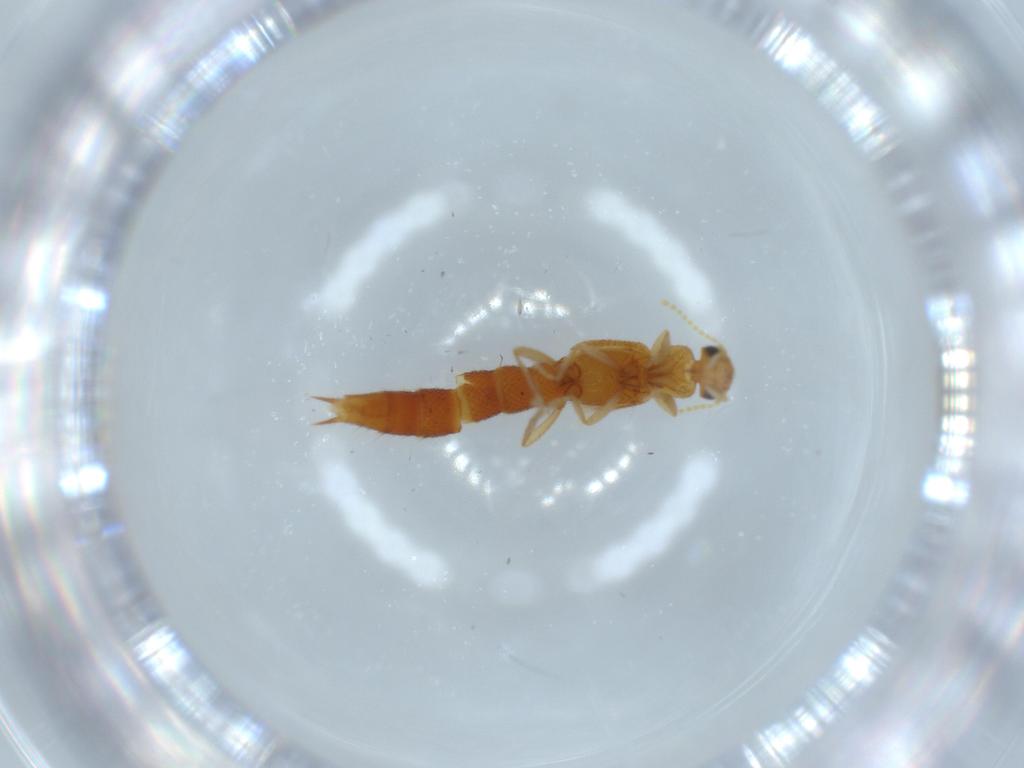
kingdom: Animalia
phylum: Arthropoda
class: Insecta
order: Coleoptera
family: Staphylinidae
